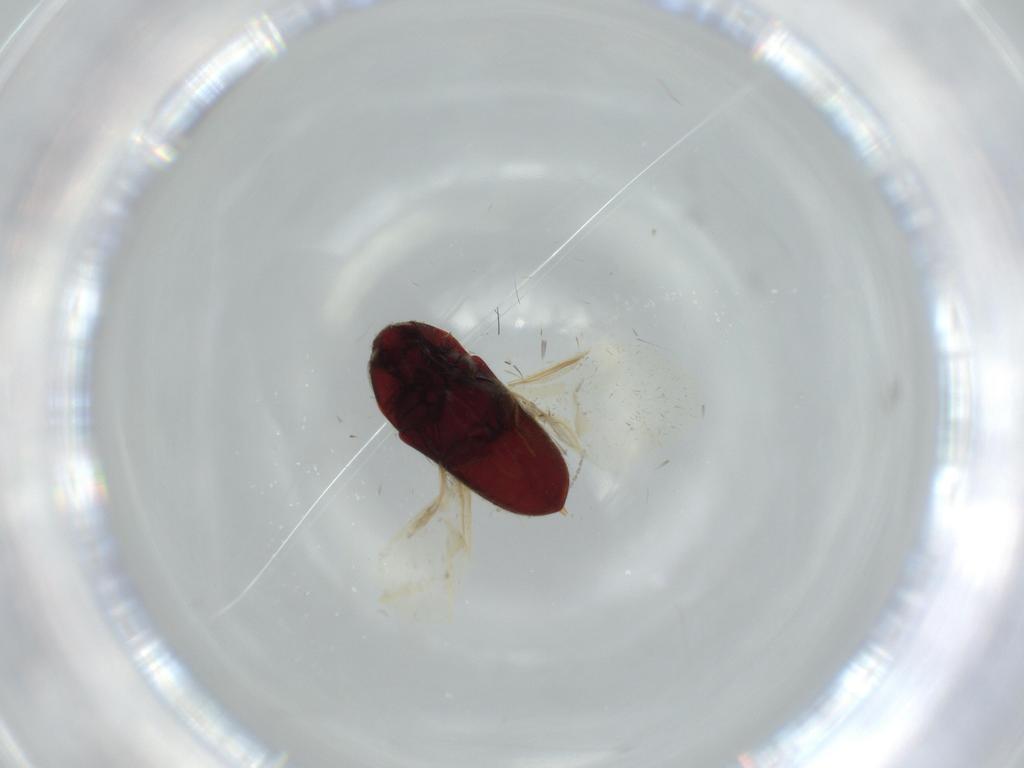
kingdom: Animalia
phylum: Arthropoda
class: Insecta
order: Coleoptera
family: Throscidae
